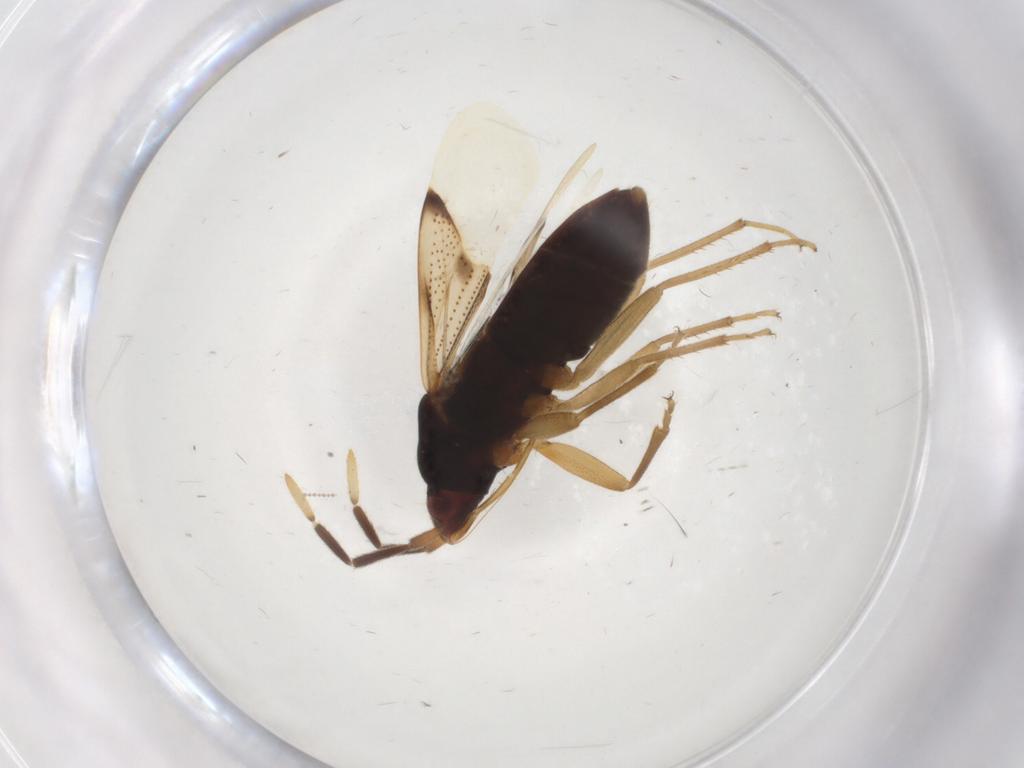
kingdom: Animalia
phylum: Arthropoda
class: Insecta
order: Hemiptera
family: Rhyparochromidae
